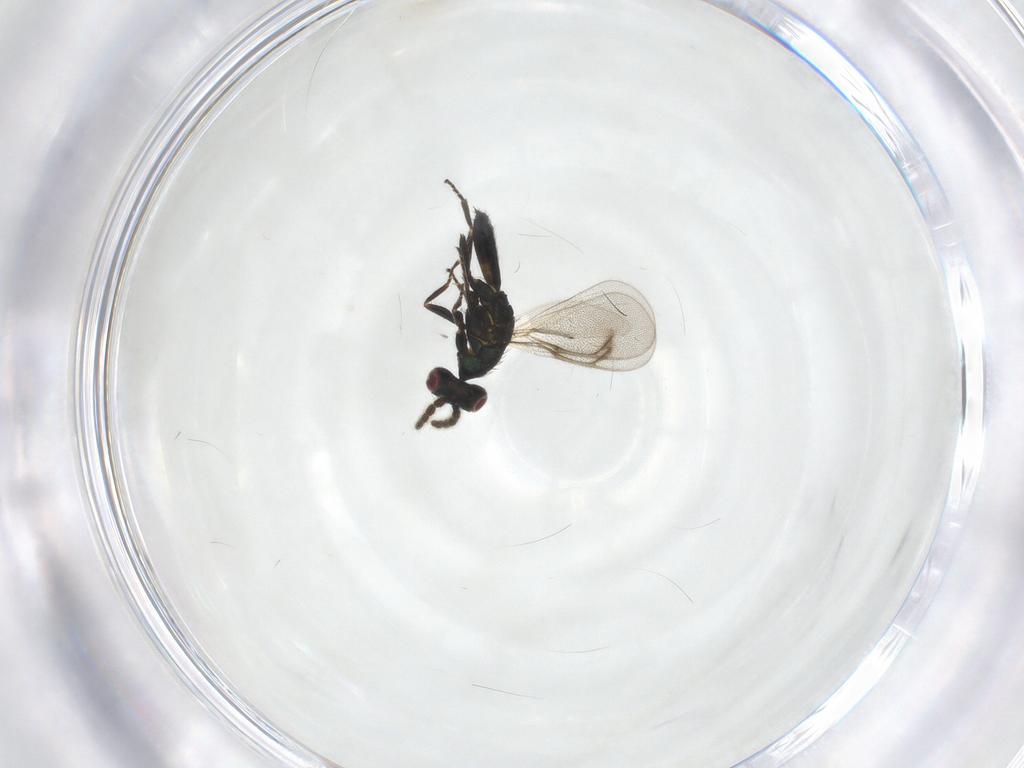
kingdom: Animalia
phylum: Arthropoda
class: Insecta
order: Hymenoptera
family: Eulophidae
